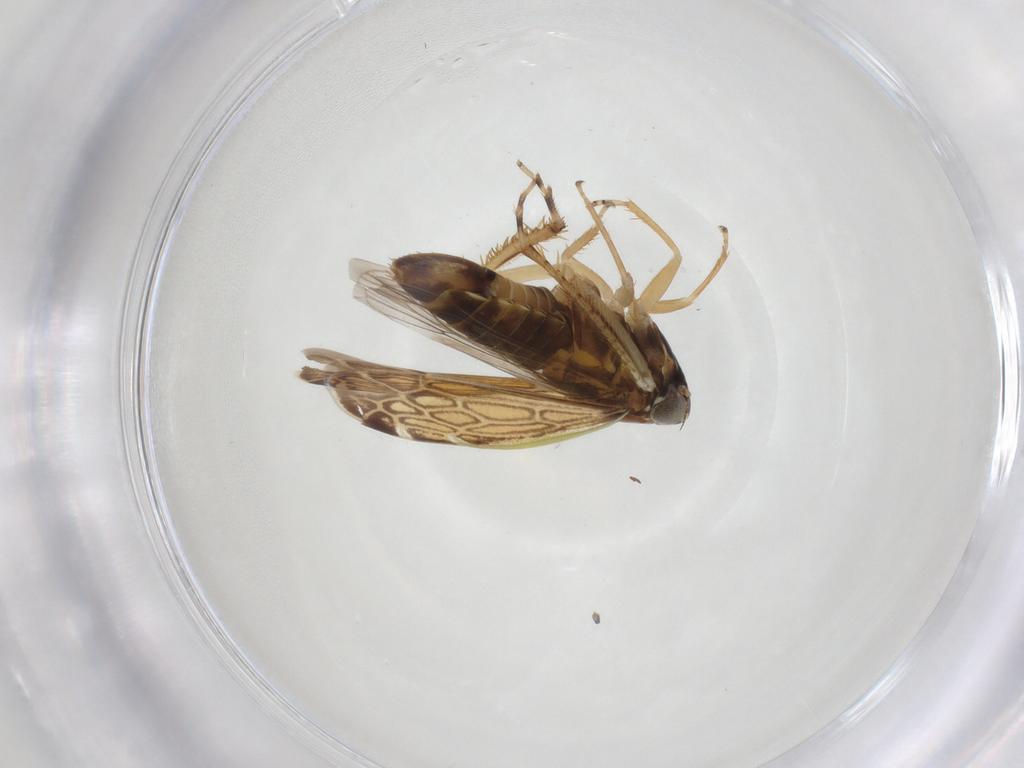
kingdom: Animalia
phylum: Arthropoda
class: Insecta
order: Hemiptera
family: Cicadellidae
